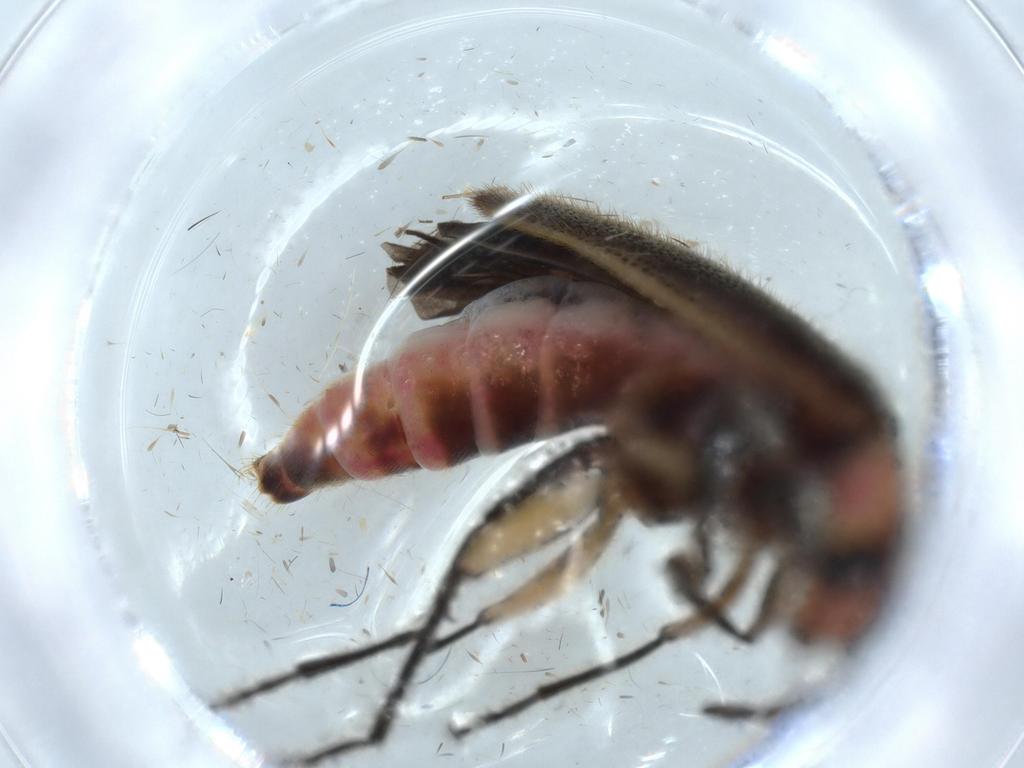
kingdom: Animalia
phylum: Arthropoda
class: Insecta
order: Coleoptera
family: Cleridae
